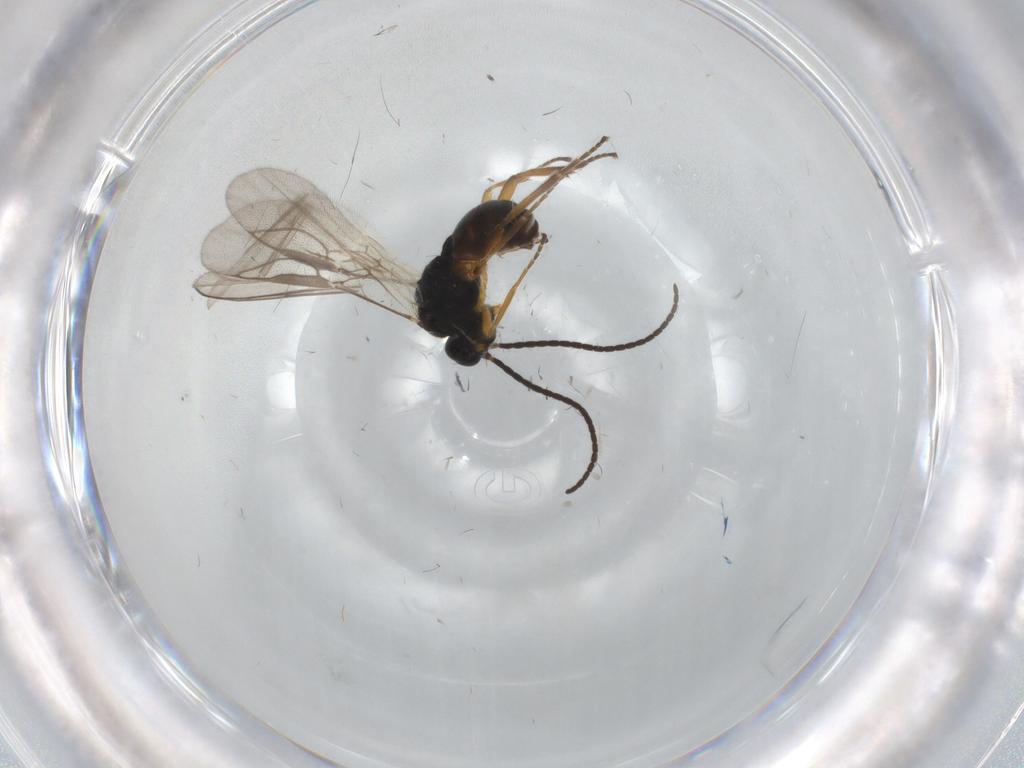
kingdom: Animalia
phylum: Arthropoda
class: Insecta
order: Hymenoptera
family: Braconidae
